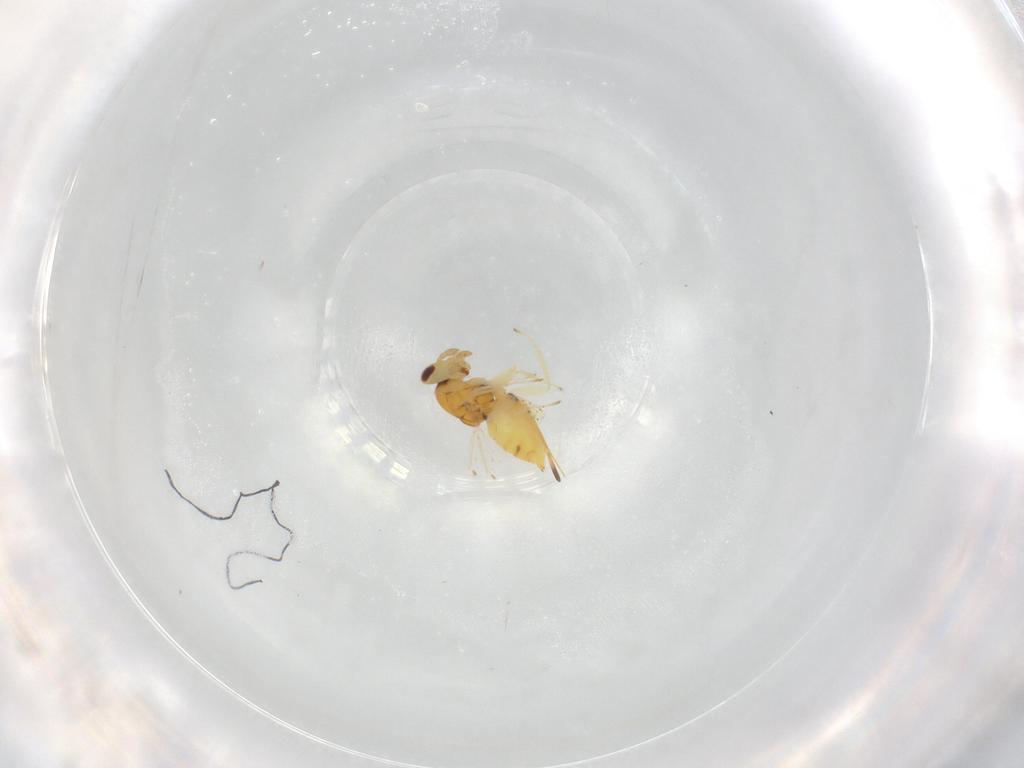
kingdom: Animalia
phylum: Arthropoda
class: Insecta
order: Hymenoptera
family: Eulophidae
